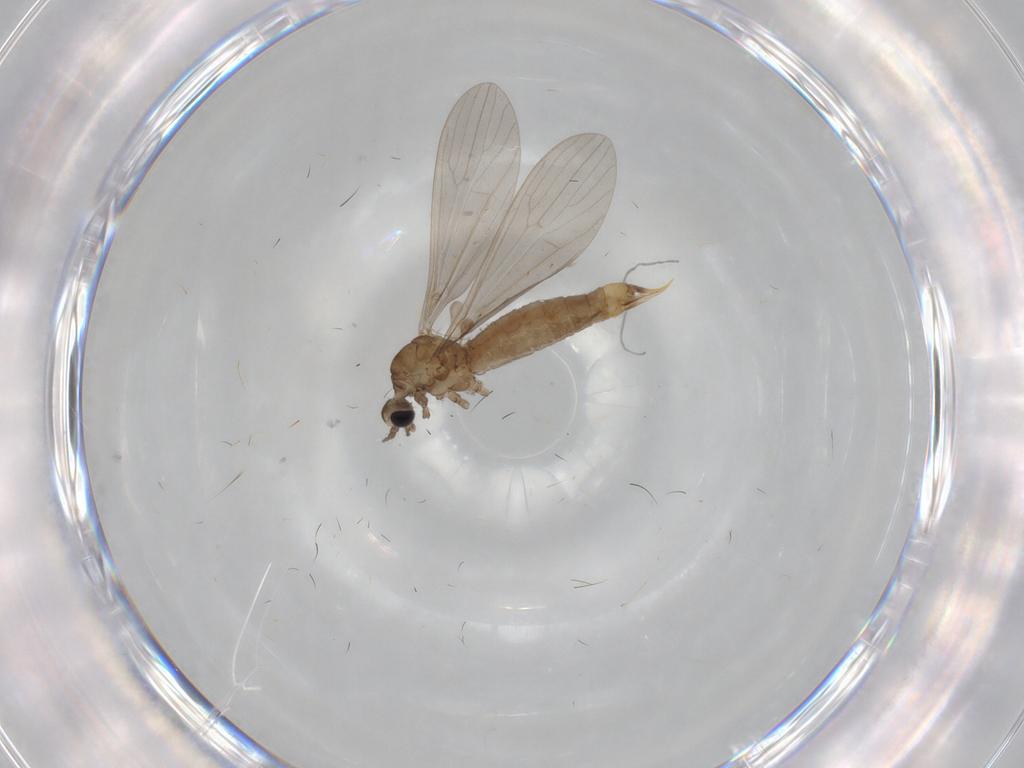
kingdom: Animalia
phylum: Arthropoda
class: Insecta
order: Diptera
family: Limoniidae
